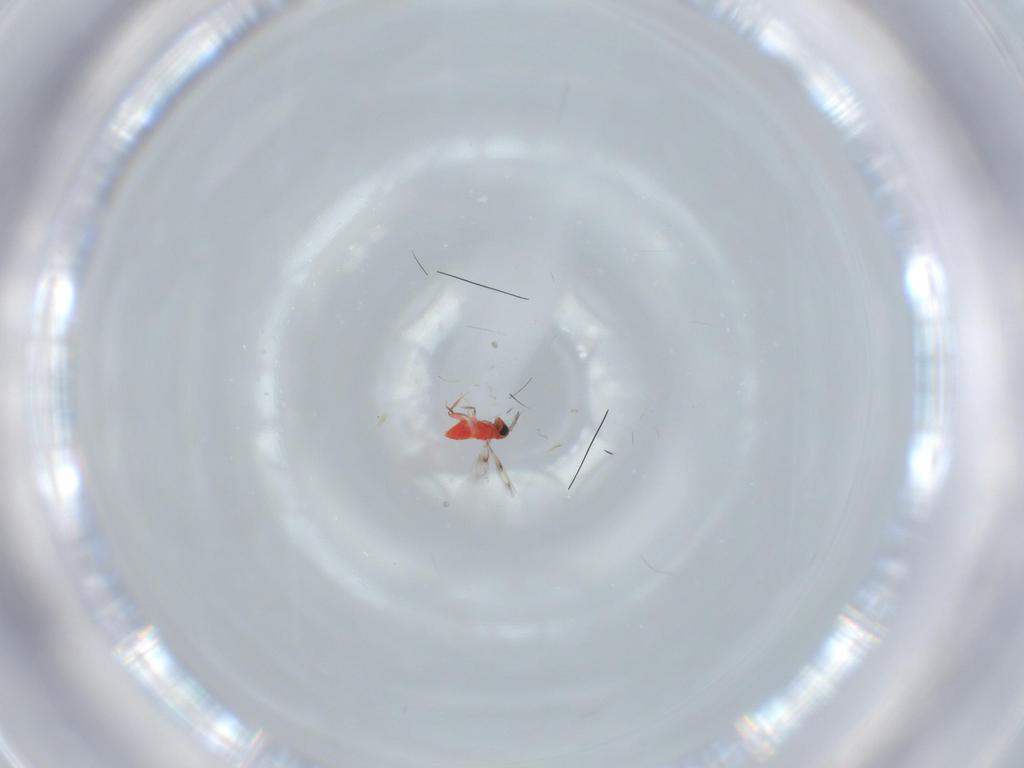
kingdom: Animalia
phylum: Arthropoda
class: Insecta
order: Hymenoptera
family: Trichogrammatidae
